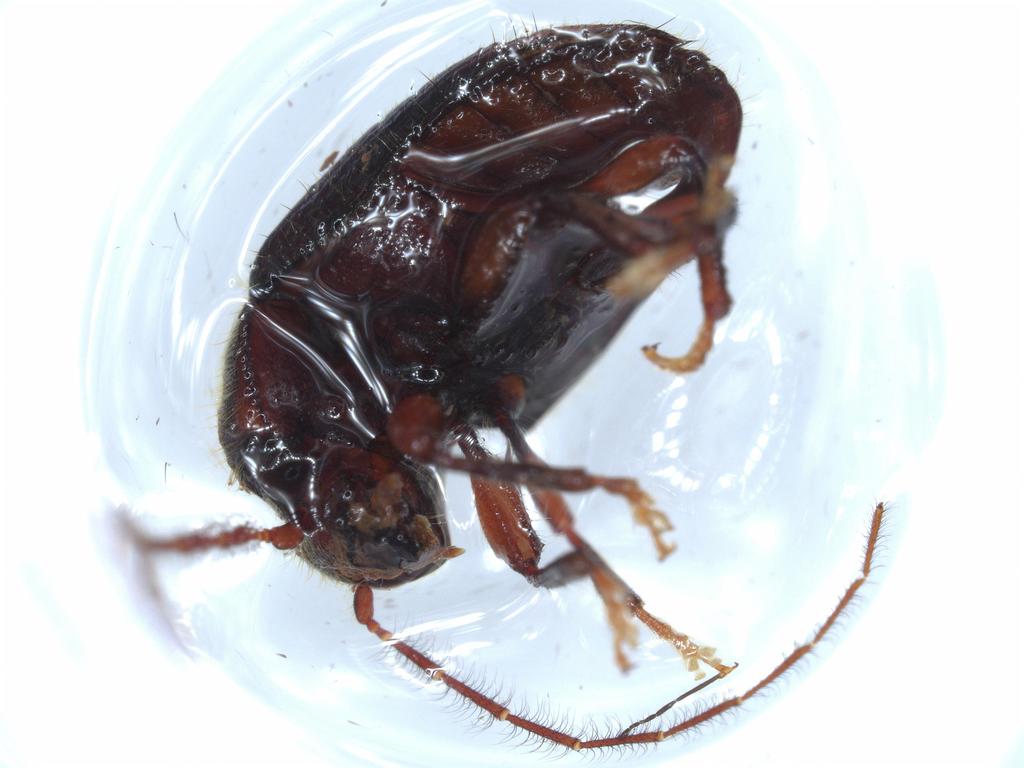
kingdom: Animalia
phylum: Arthropoda
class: Insecta
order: Coleoptera
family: Artematopodidae
